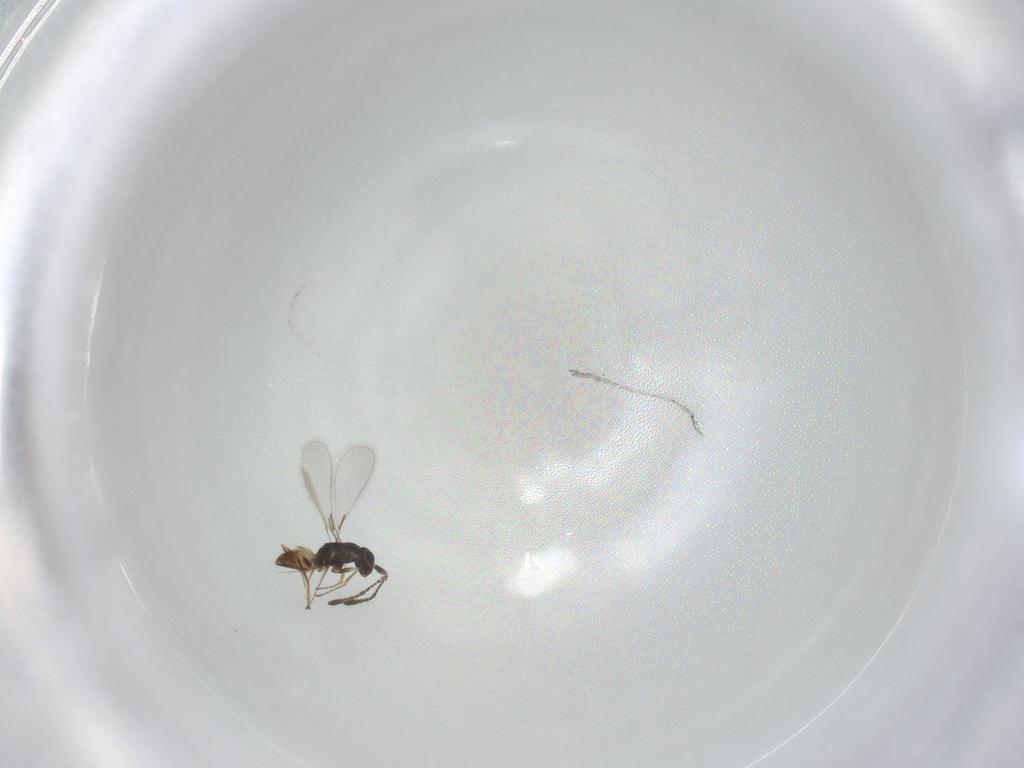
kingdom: Animalia
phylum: Arthropoda
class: Insecta
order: Hymenoptera
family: Mymaridae
